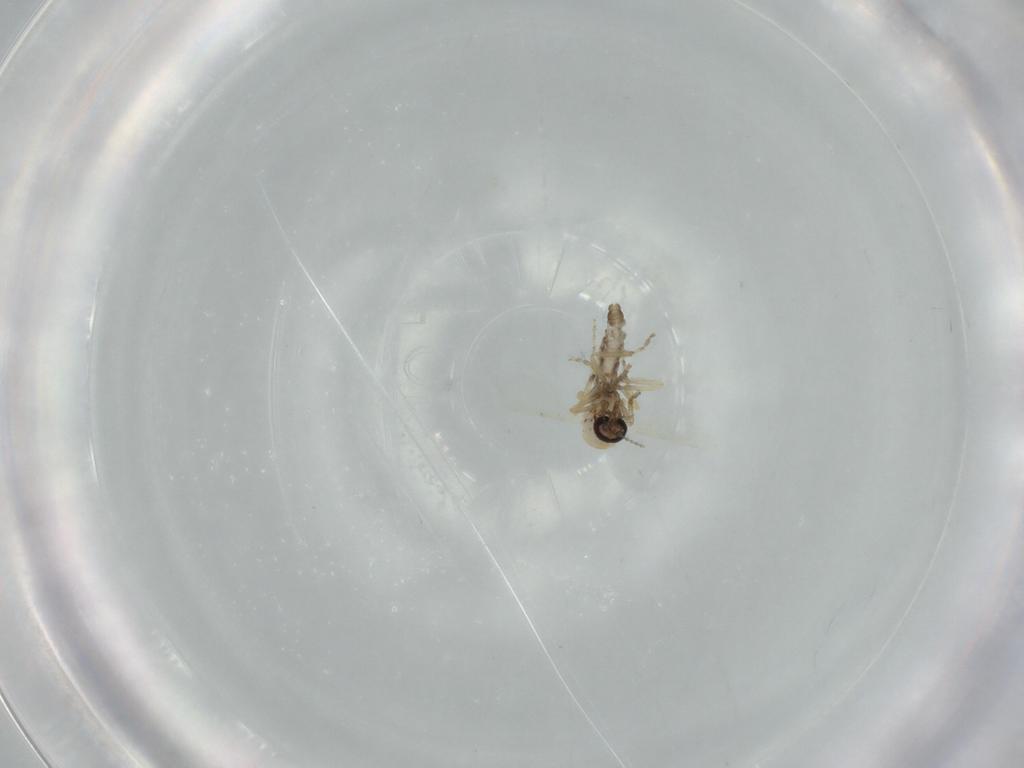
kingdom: Animalia
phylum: Arthropoda
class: Insecta
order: Diptera
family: Ceratopogonidae
